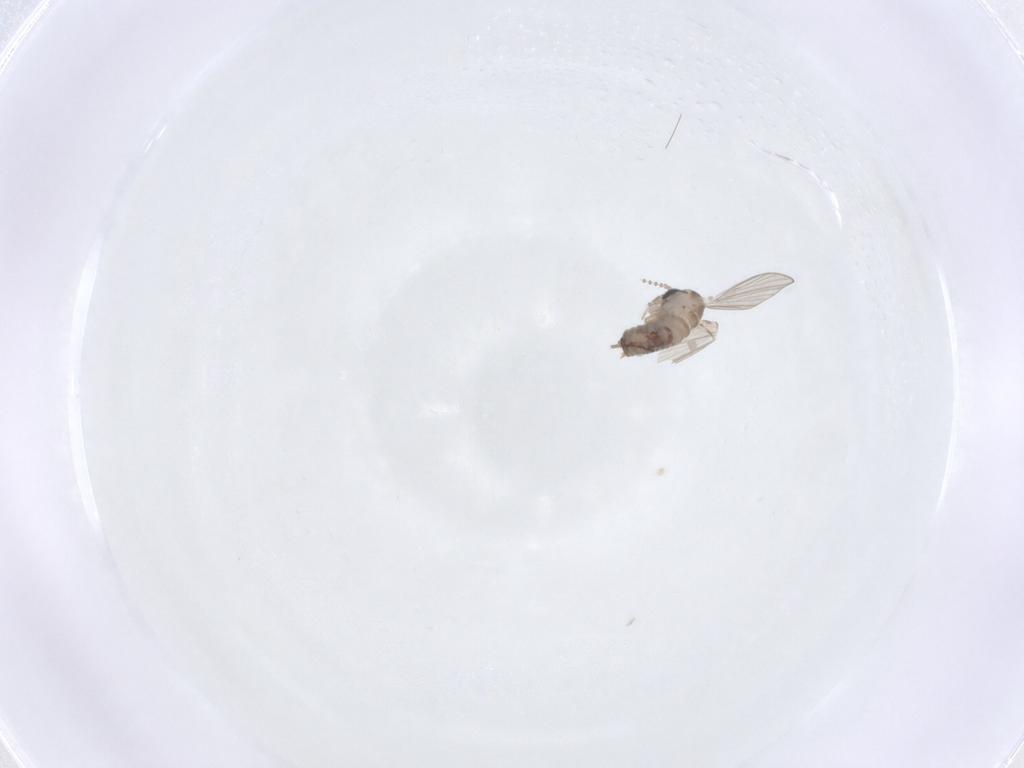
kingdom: Animalia
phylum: Arthropoda
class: Insecta
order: Diptera
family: Psychodidae
